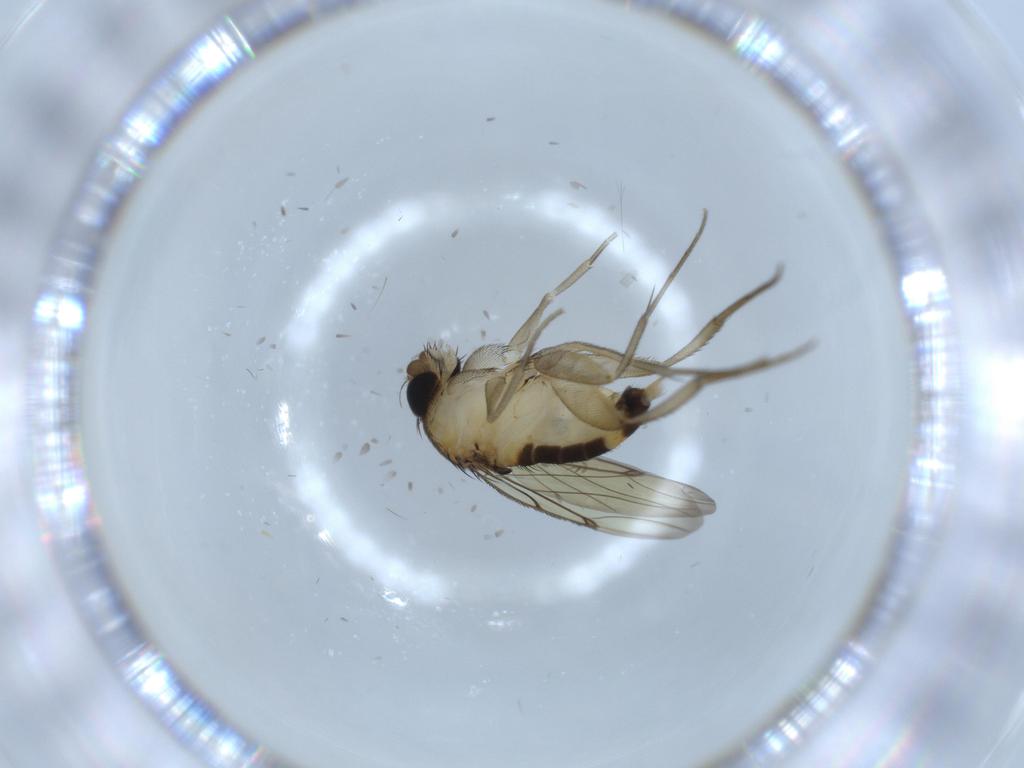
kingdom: Animalia
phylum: Arthropoda
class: Insecta
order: Diptera
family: Phoridae
